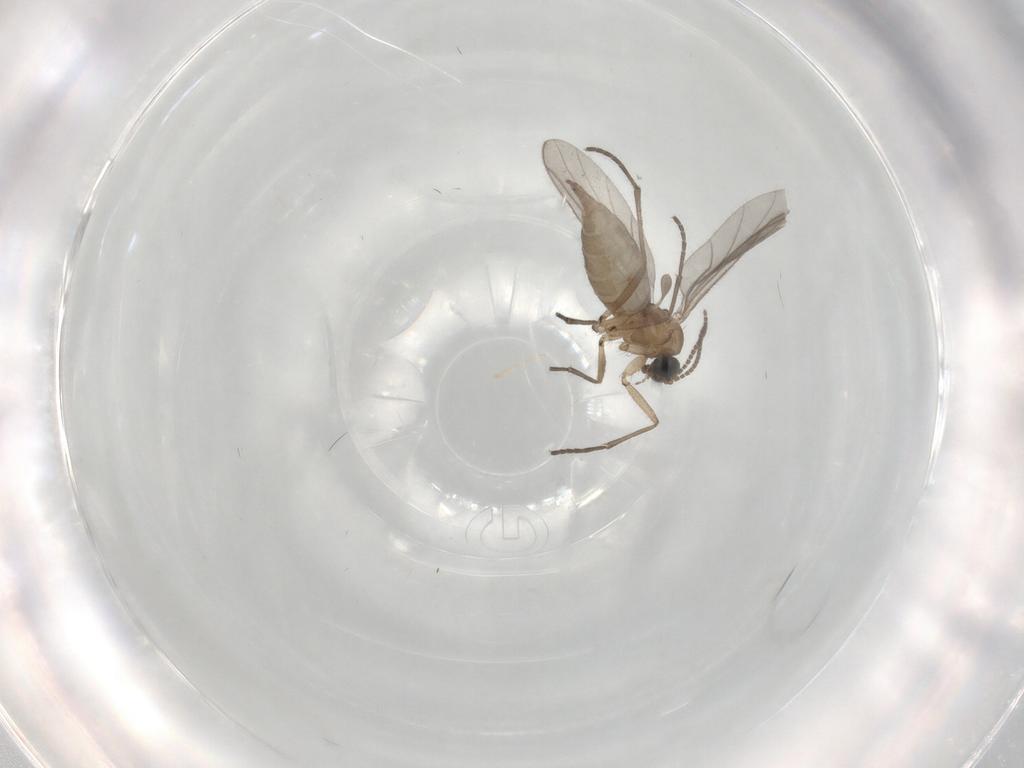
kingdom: Animalia
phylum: Arthropoda
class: Insecta
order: Diptera
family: Sciaridae
